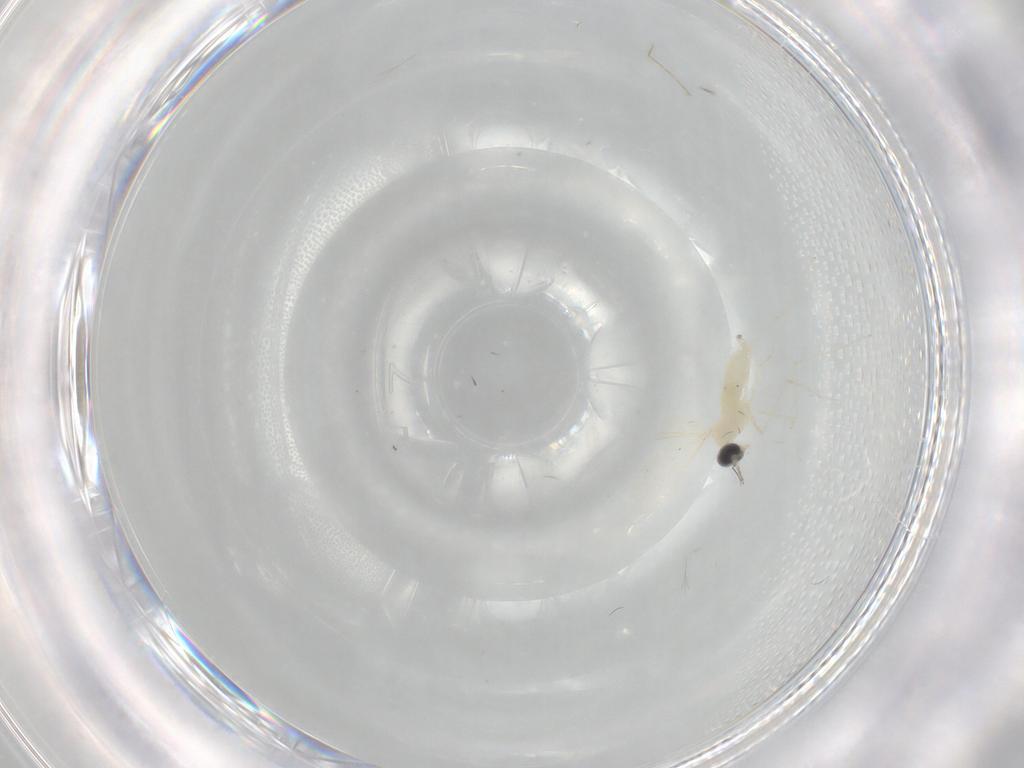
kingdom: Animalia
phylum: Arthropoda
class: Insecta
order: Diptera
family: Cecidomyiidae
